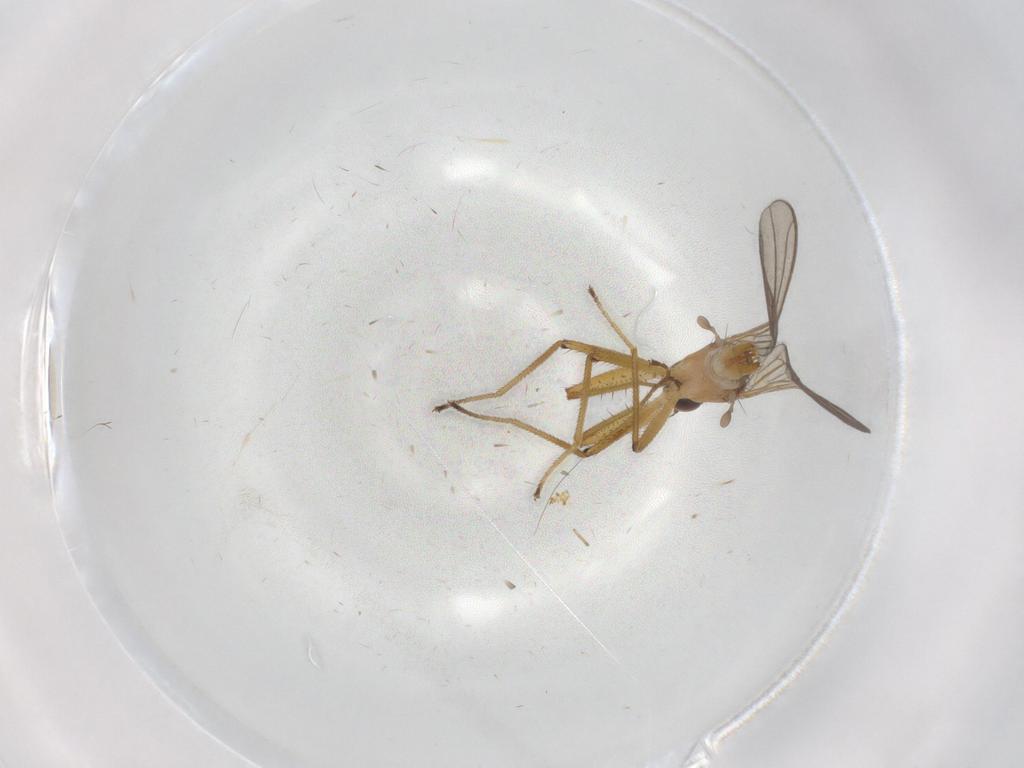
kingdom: Animalia
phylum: Arthropoda
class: Insecta
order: Diptera
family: Empididae
